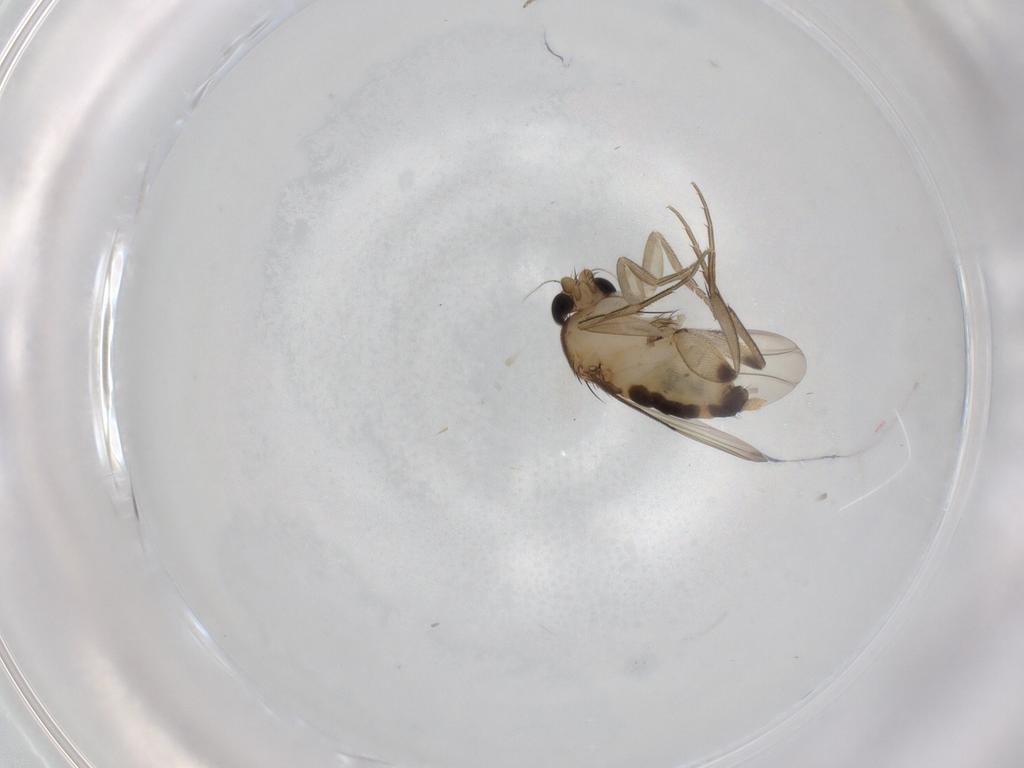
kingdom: Animalia
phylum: Arthropoda
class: Insecta
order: Diptera
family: Phoridae
